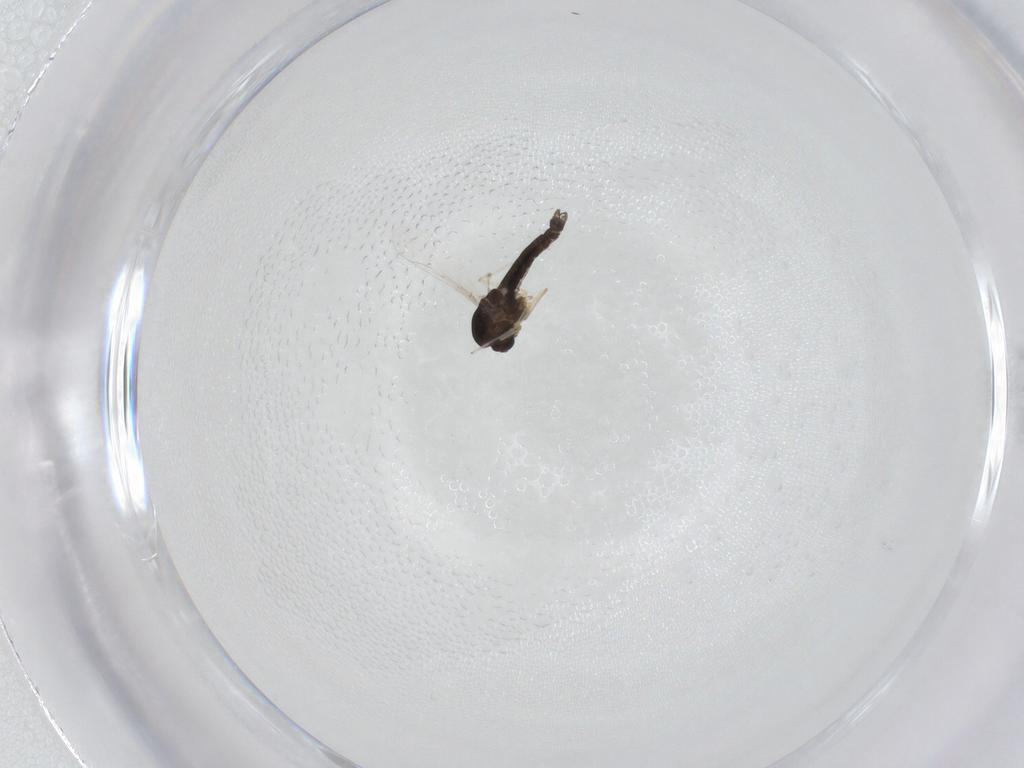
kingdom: Animalia
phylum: Arthropoda
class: Insecta
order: Diptera
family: Chironomidae
